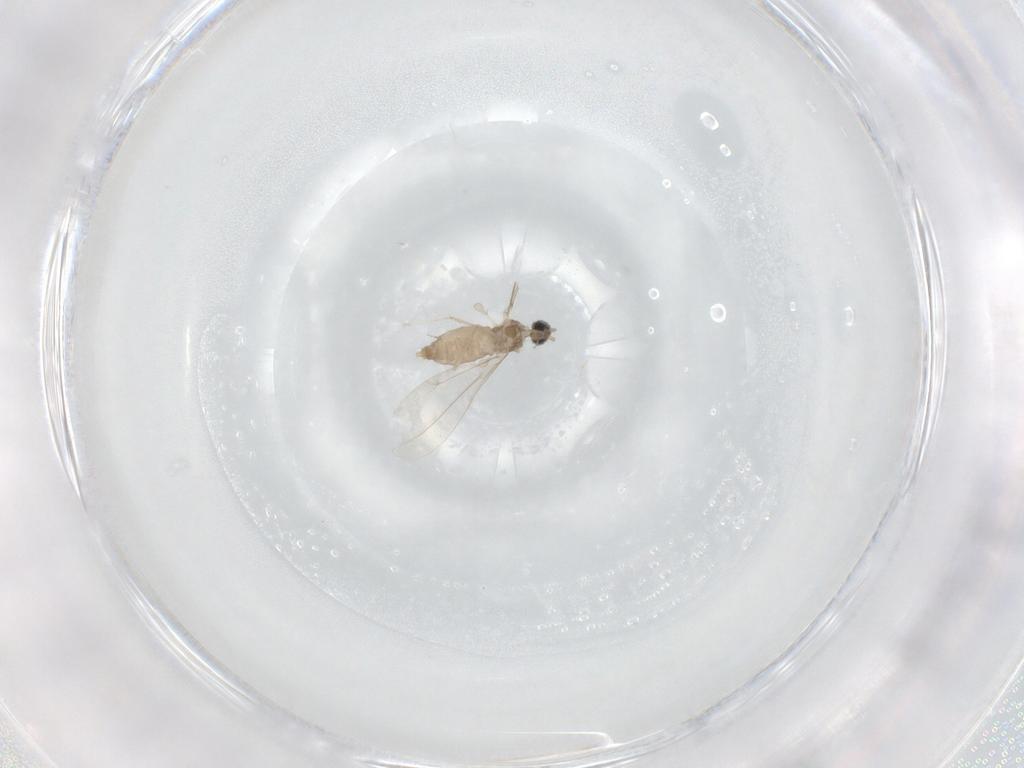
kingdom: Animalia
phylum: Arthropoda
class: Insecta
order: Diptera
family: Cecidomyiidae
